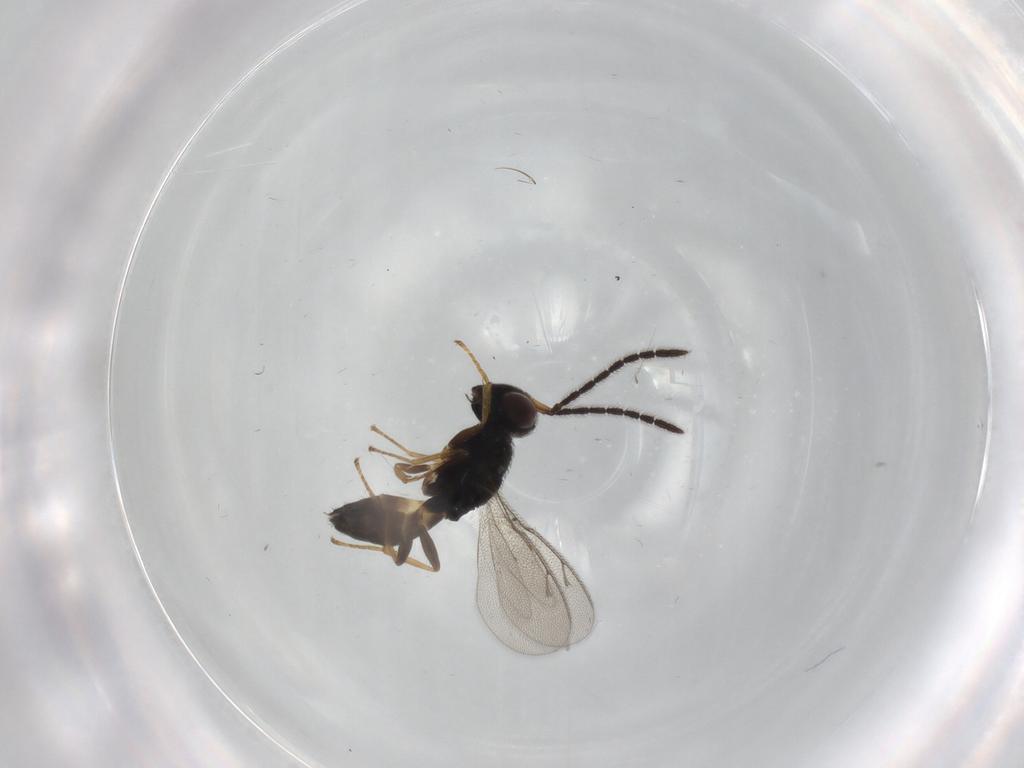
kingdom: Animalia
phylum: Arthropoda
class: Insecta
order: Hymenoptera
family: Pteromalidae
